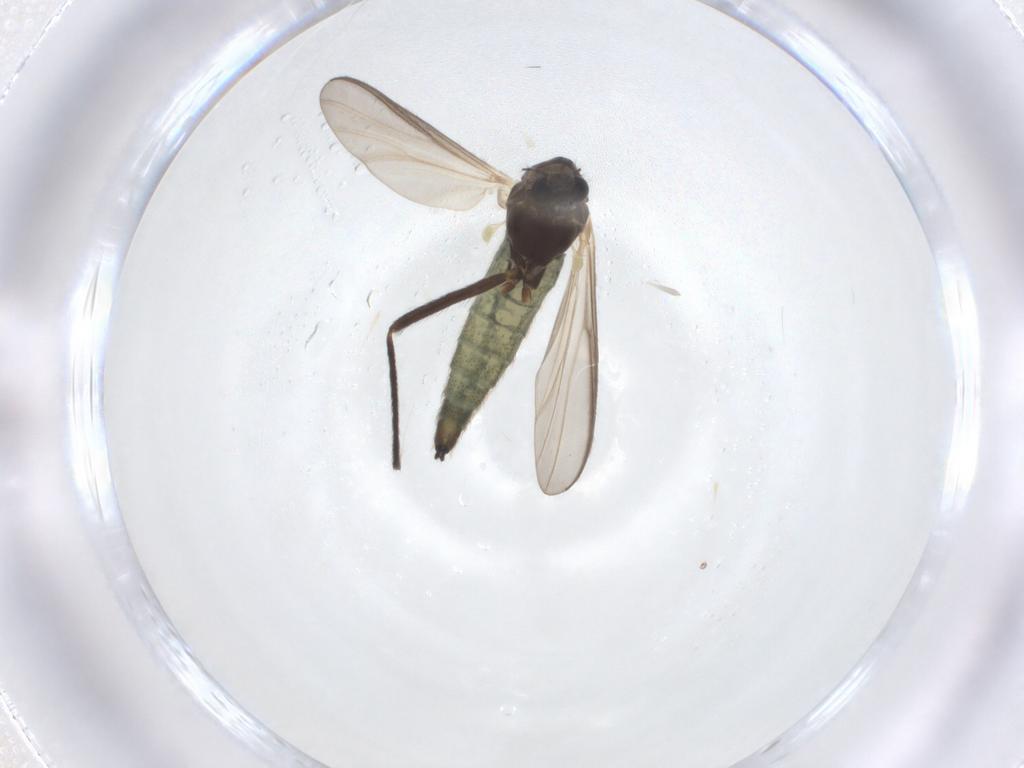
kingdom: Animalia
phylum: Arthropoda
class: Insecta
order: Diptera
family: Chironomidae
